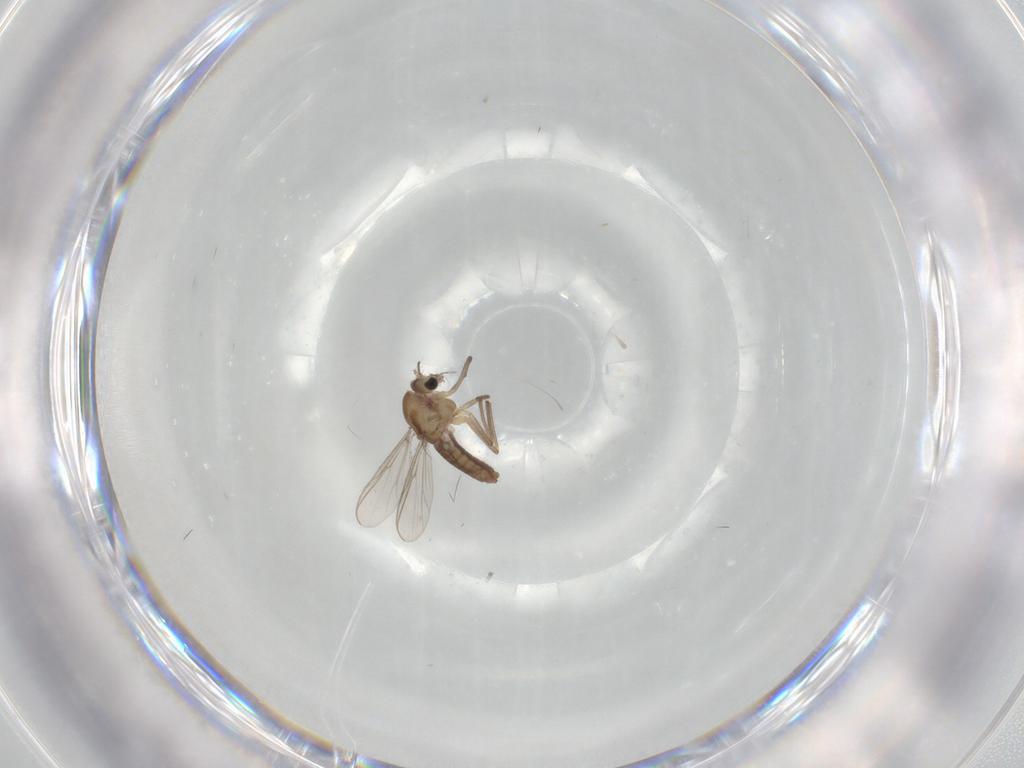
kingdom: Animalia
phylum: Arthropoda
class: Insecta
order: Diptera
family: Chironomidae
